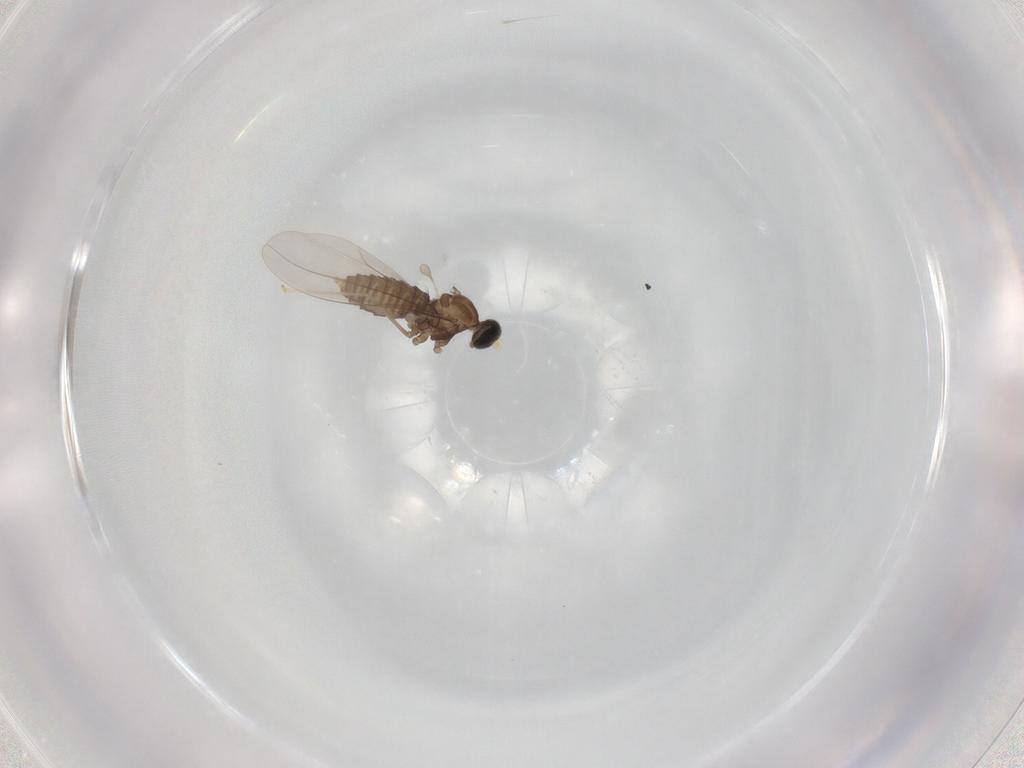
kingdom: Animalia
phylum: Arthropoda
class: Insecta
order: Diptera
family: Cecidomyiidae
